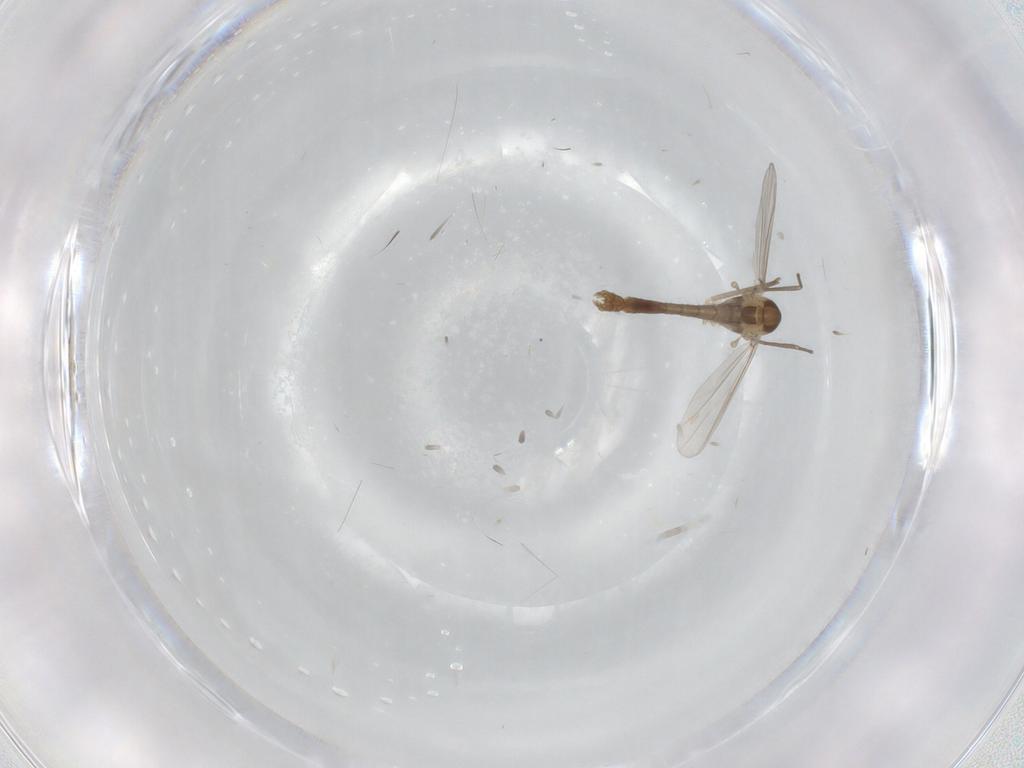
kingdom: Animalia
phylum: Arthropoda
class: Insecta
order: Diptera
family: Chironomidae
